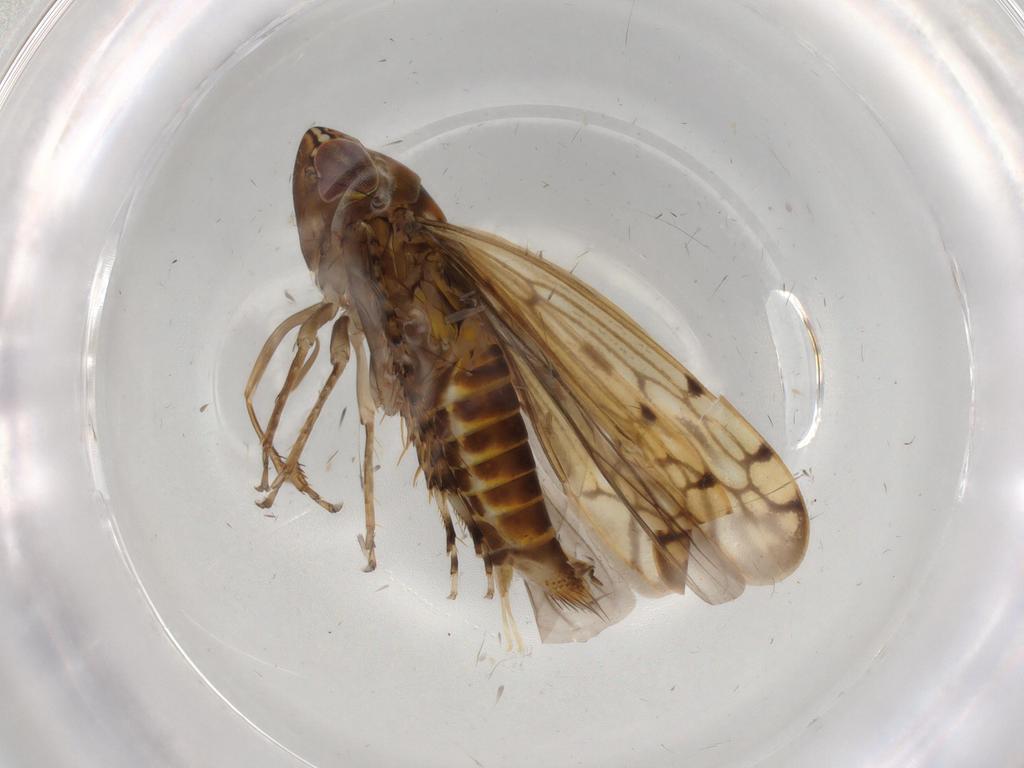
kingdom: Animalia
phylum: Arthropoda
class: Insecta
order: Hemiptera
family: Cicadellidae
